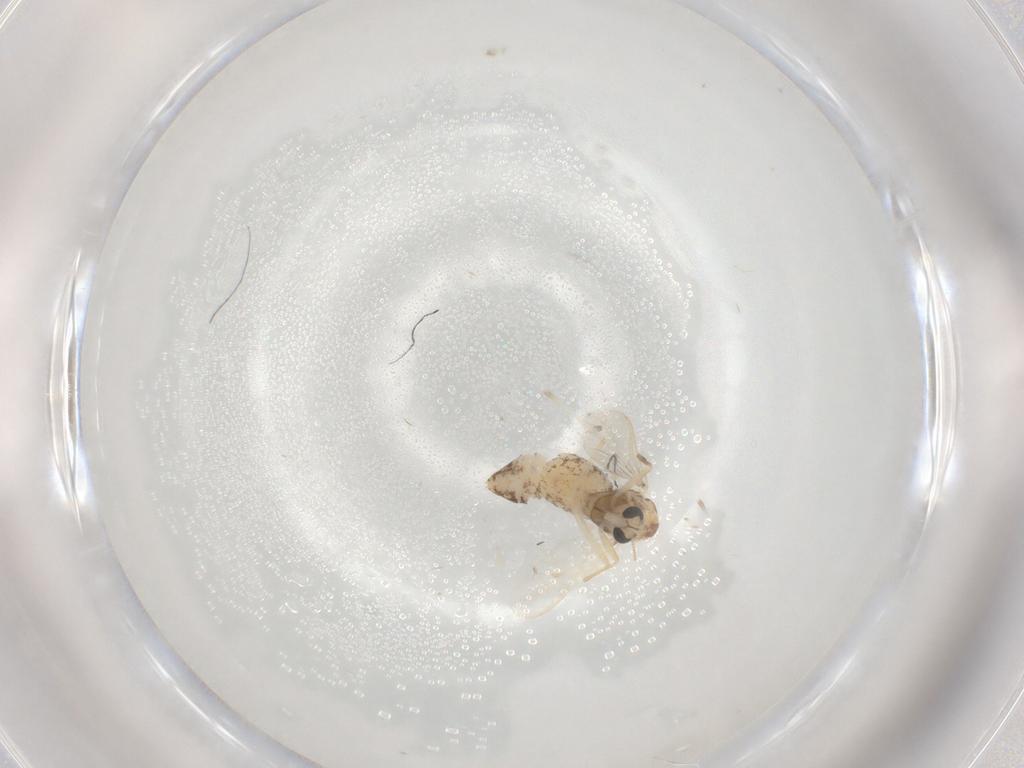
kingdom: Animalia
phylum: Arthropoda
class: Insecta
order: Diptera
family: Chironomidae
